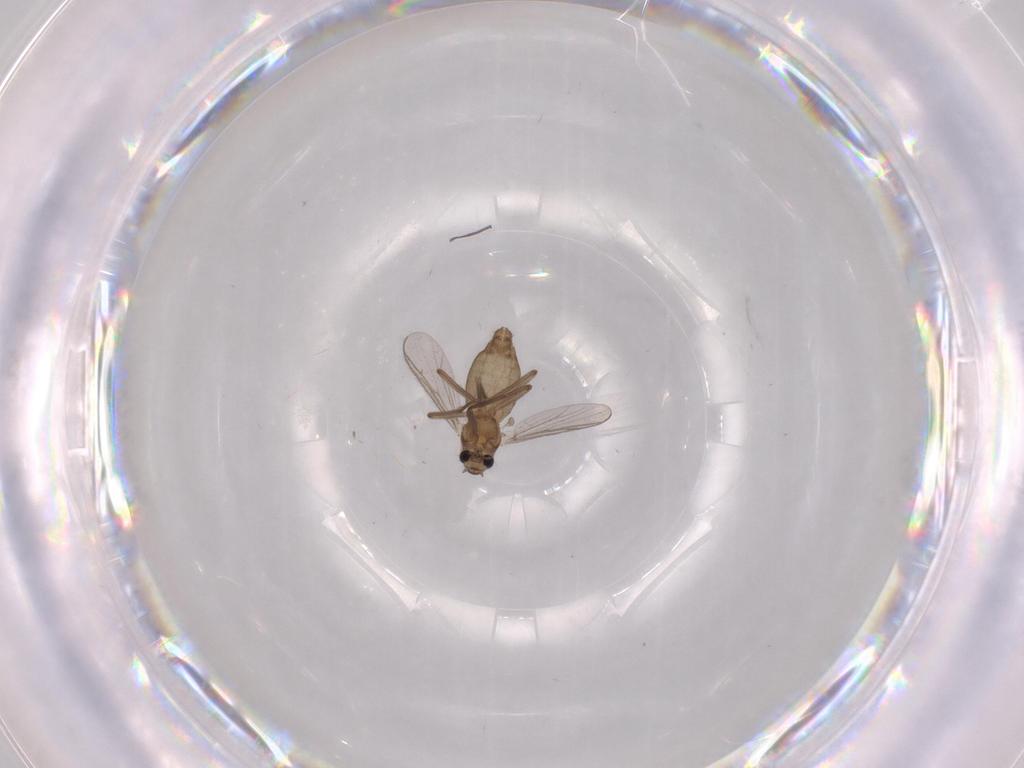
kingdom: Animalia
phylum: Arthropoda
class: Insecta
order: Diptera
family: Chironomidae
